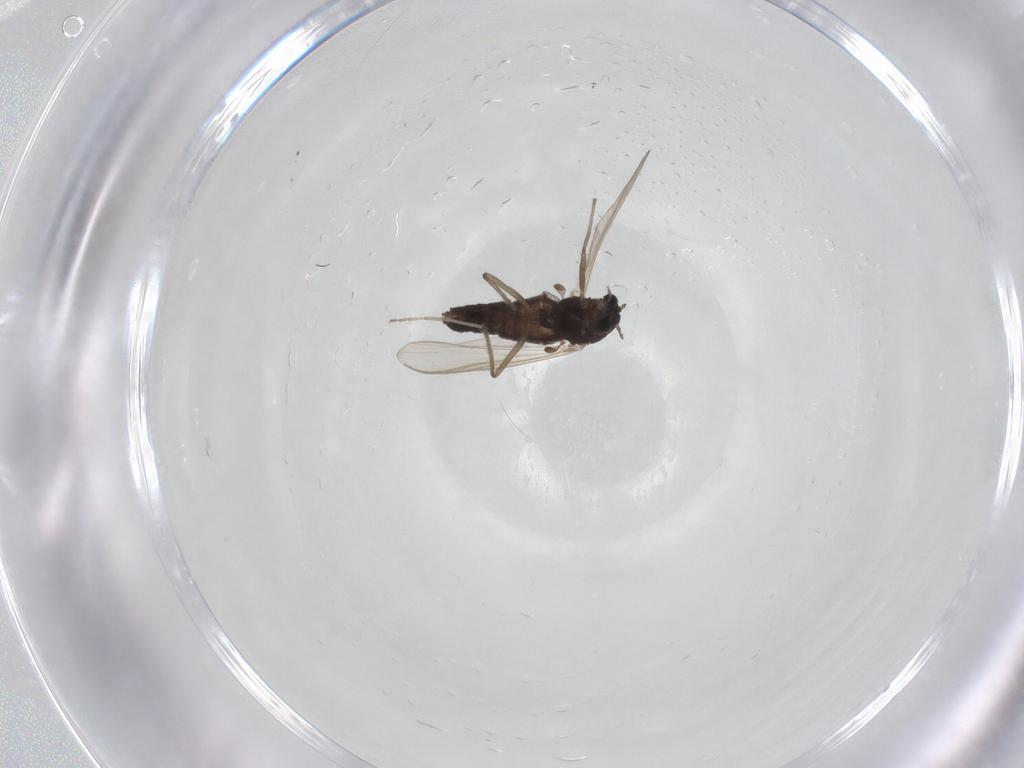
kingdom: Animalia
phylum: Arthropoda
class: Insecta
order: Diptera
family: Chironomidae
